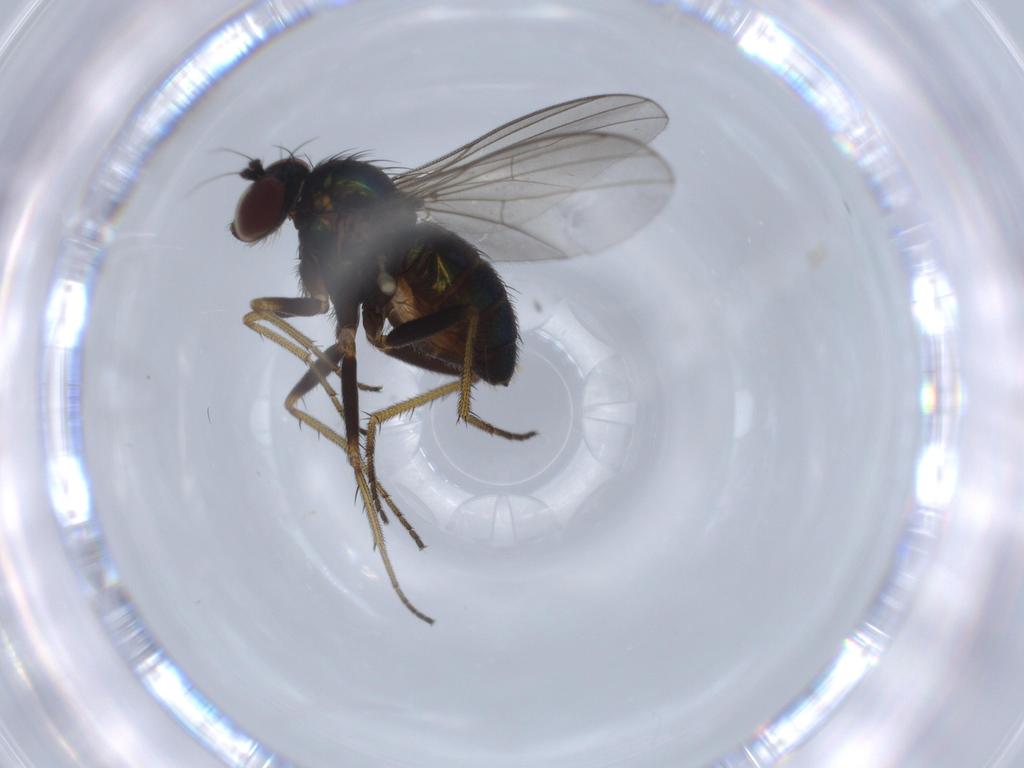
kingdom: Animalia
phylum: Arthropoda
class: Insecta
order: Diptera
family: Dolichopodidae
